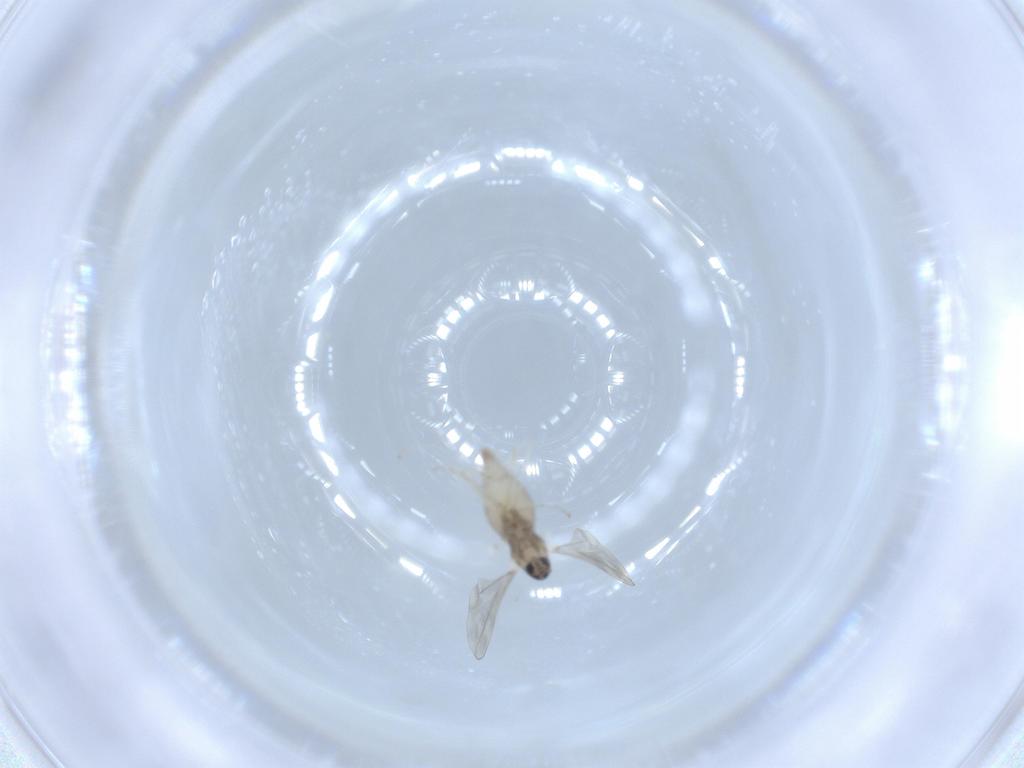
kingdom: Animalia
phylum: Arthropoda
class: Insecta
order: Diptera
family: Cecidomyiidae
